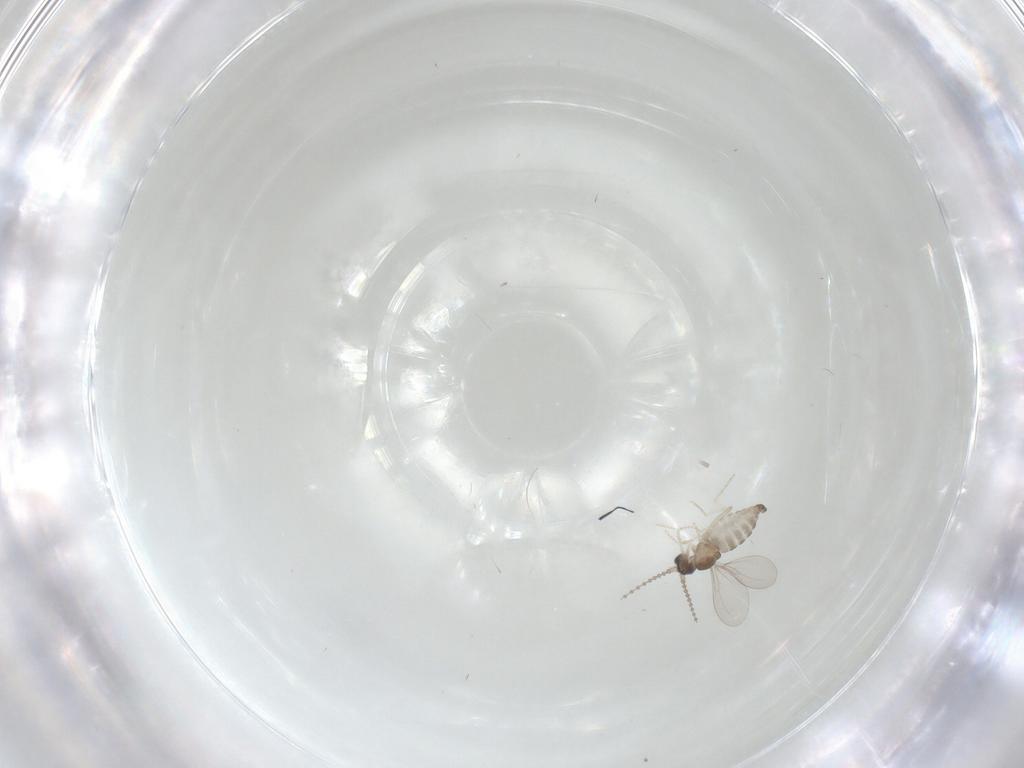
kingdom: Animalia
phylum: Arthropoda
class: Insecta
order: Diptera
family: Cecidomyiidae
